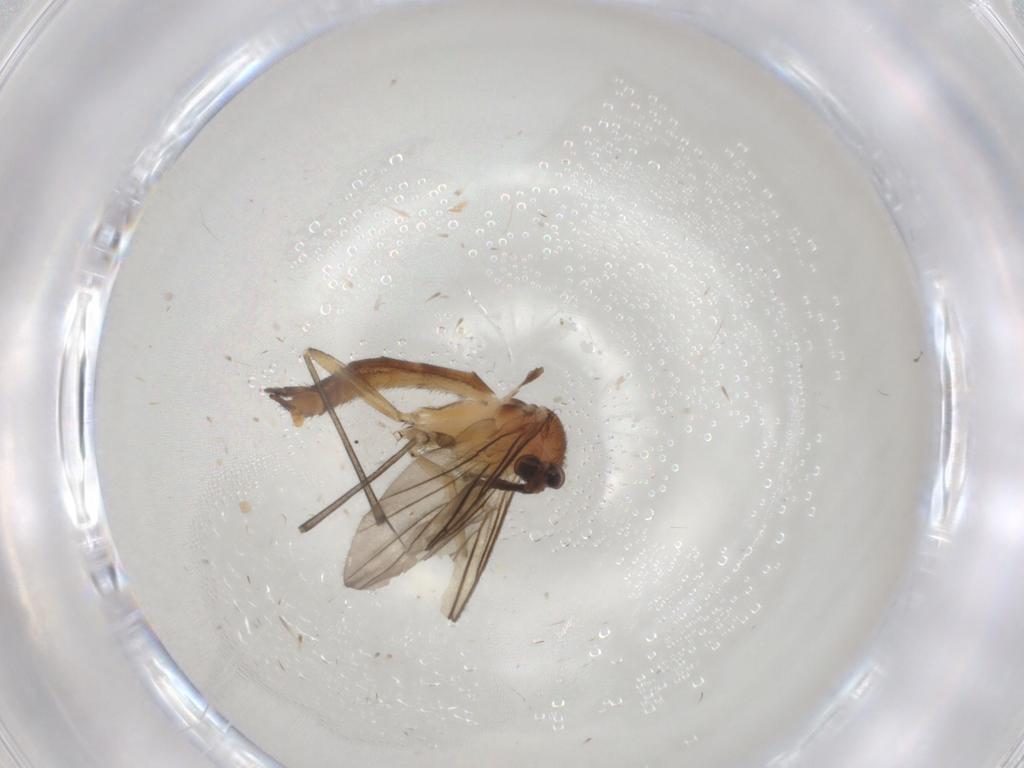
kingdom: Animalia
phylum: Arthropoda
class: Insecta
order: Diptera
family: Keroplatidae
